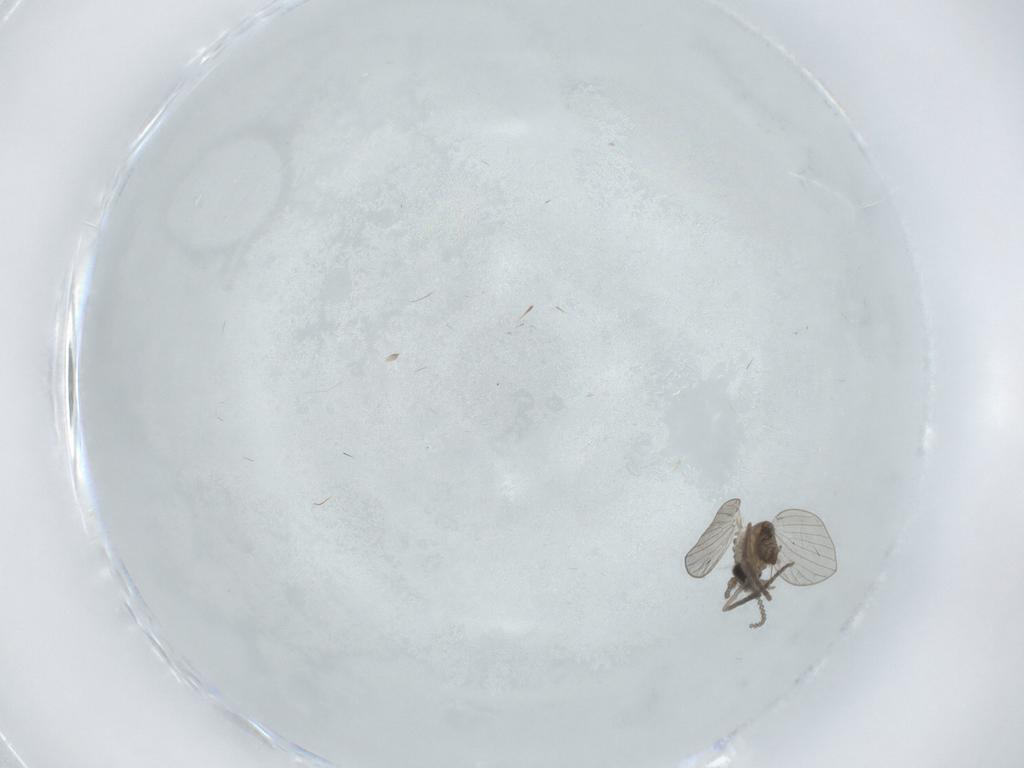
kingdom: Animalia
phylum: Arthropoda
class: Insecta
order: Diptera
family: Psychodidae
